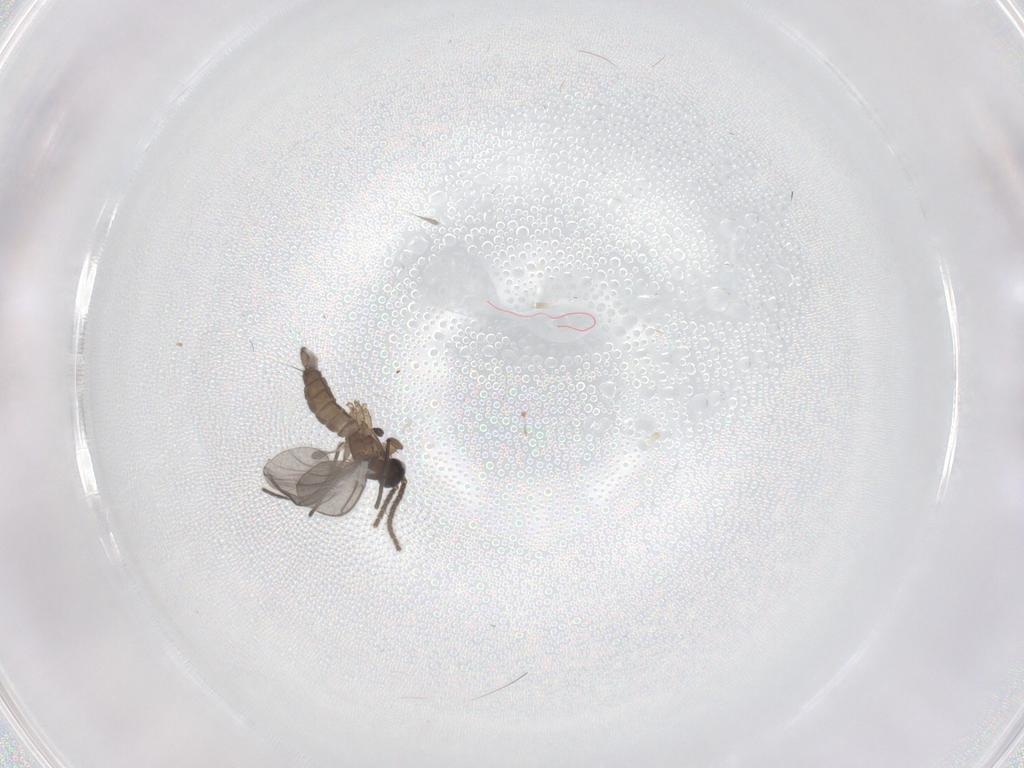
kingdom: Animalia
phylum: Arthropoda
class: Insecta
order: Diptera
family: Sciaridae
